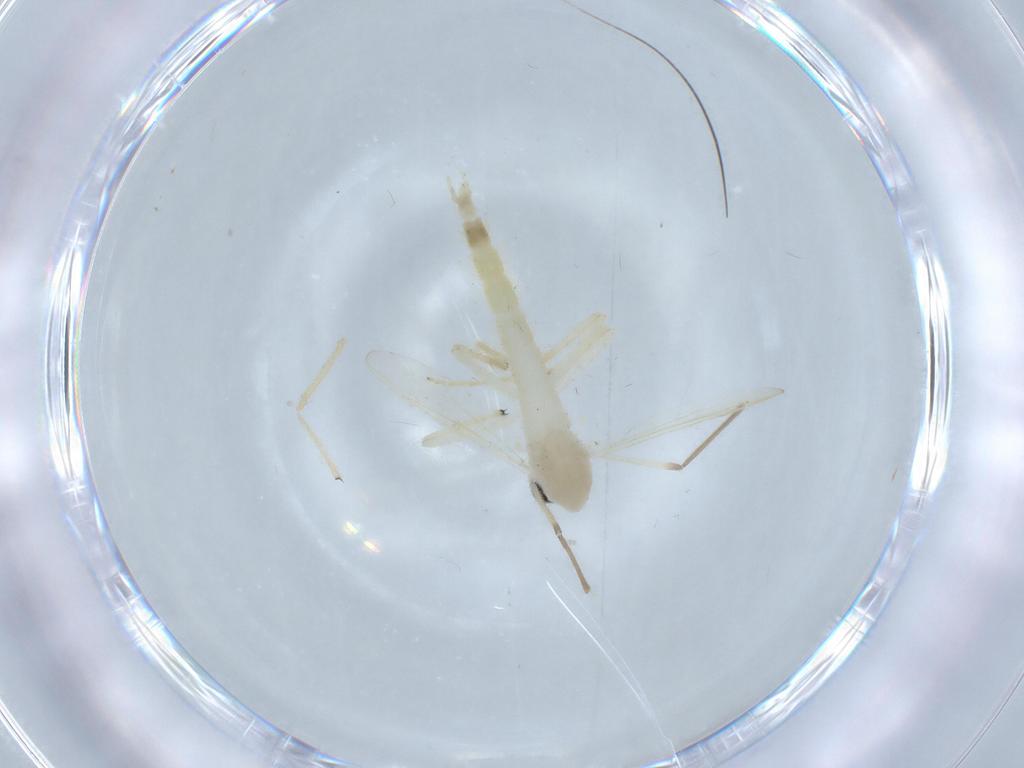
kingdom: Animalia
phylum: Arthropoda
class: Insecta
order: Diptera
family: Chironomidae
